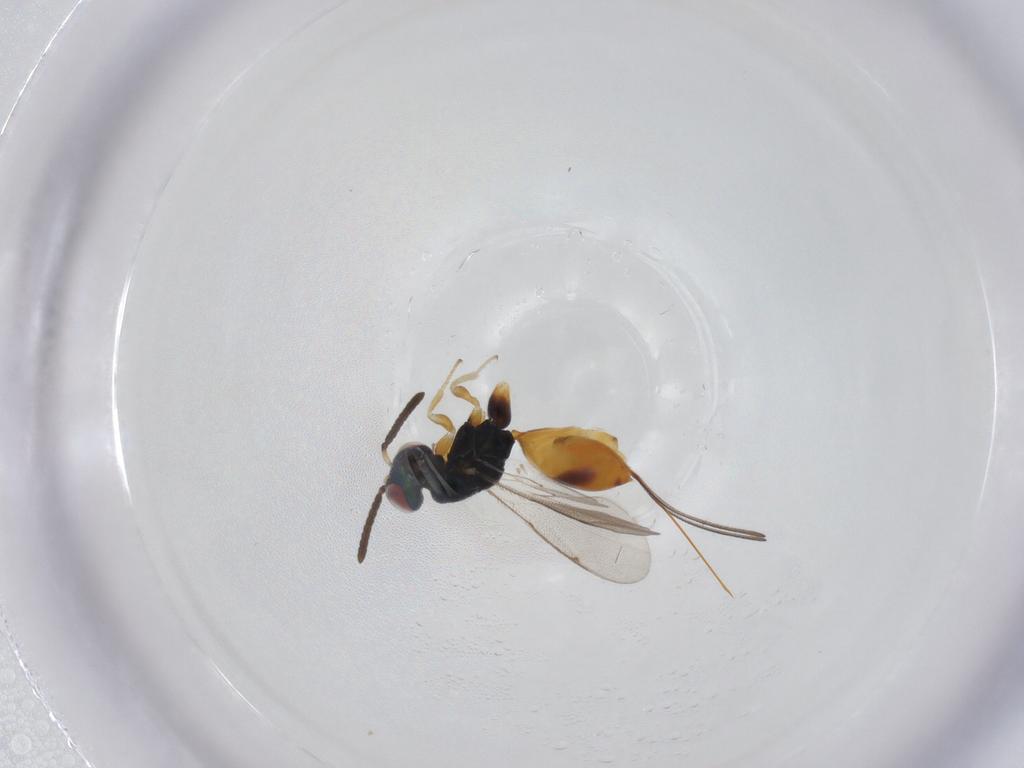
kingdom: Animalia
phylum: Arthropoda
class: Insecta
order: Hymenoptera
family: Torymidae
